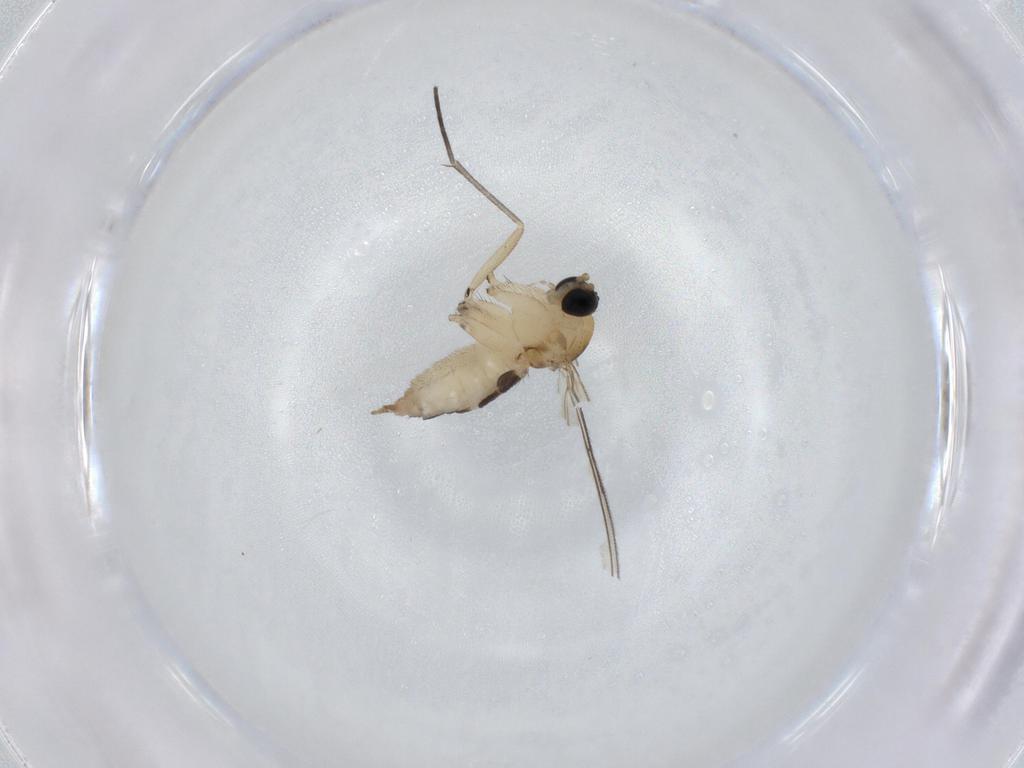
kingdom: Animalia
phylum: Arthropoda
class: Insecta
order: Diptera
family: Sciaridae
